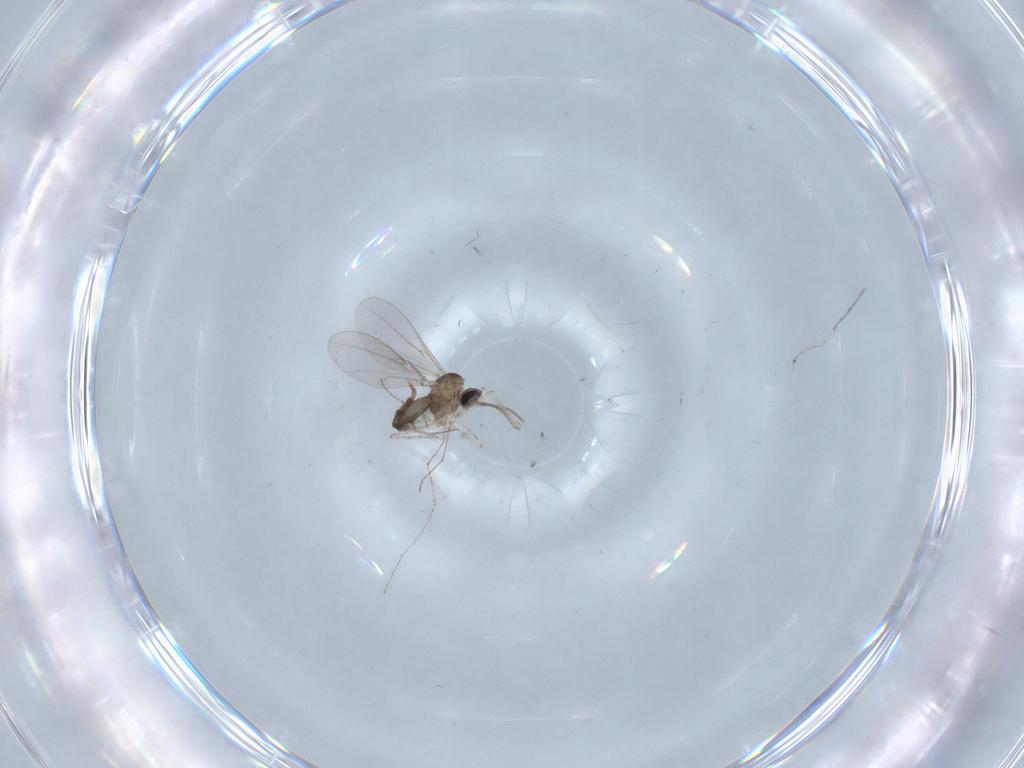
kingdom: Animalia
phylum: Arthropoda
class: Insecta
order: Diptera
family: Cecidomyiidae
